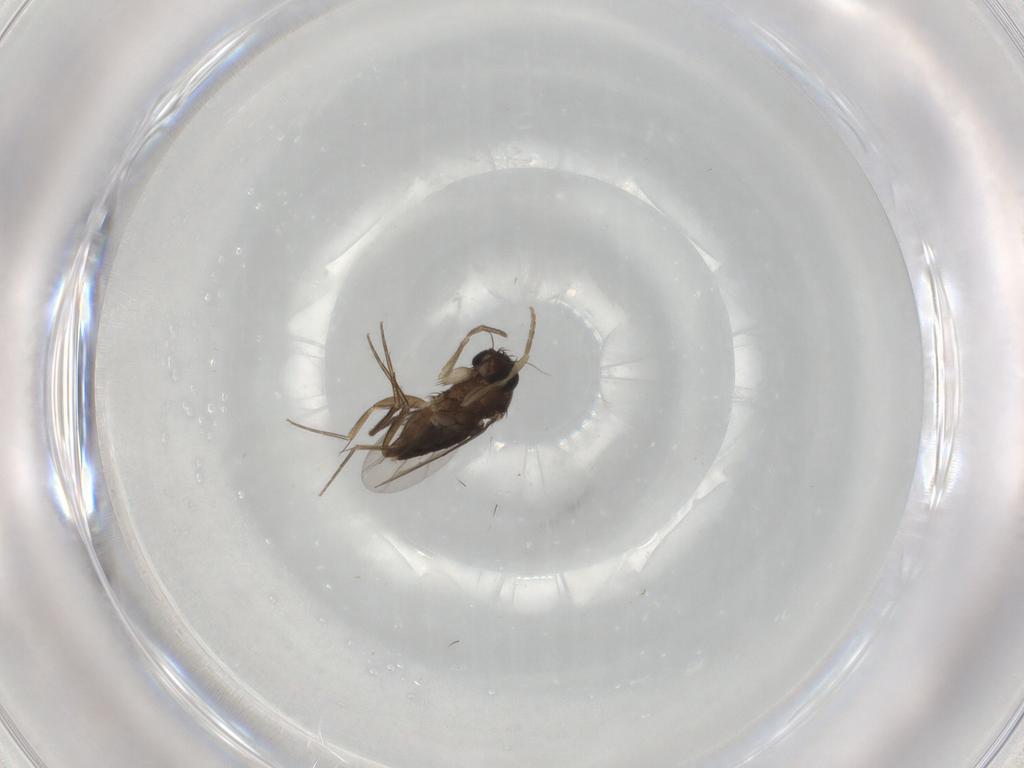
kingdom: Animalia
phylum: Arthropoda
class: Insecta
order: Diptera
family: Phoridae
